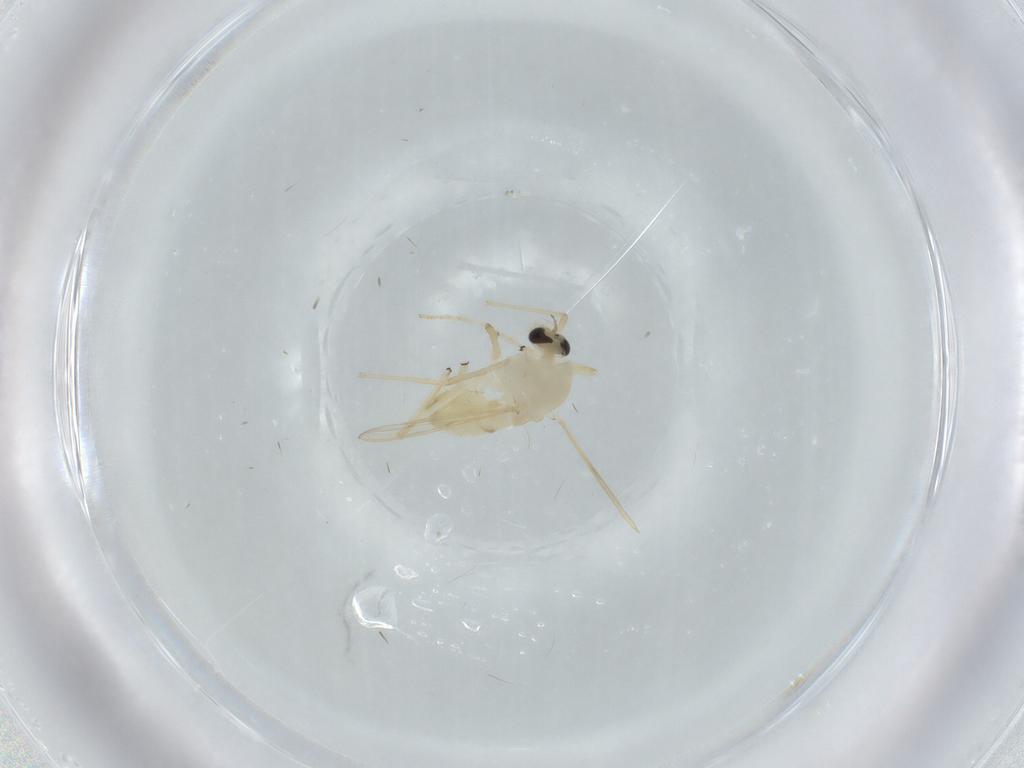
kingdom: Animalia
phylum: Arthropoda
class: Insecta
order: Diptera
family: Chironomidae
